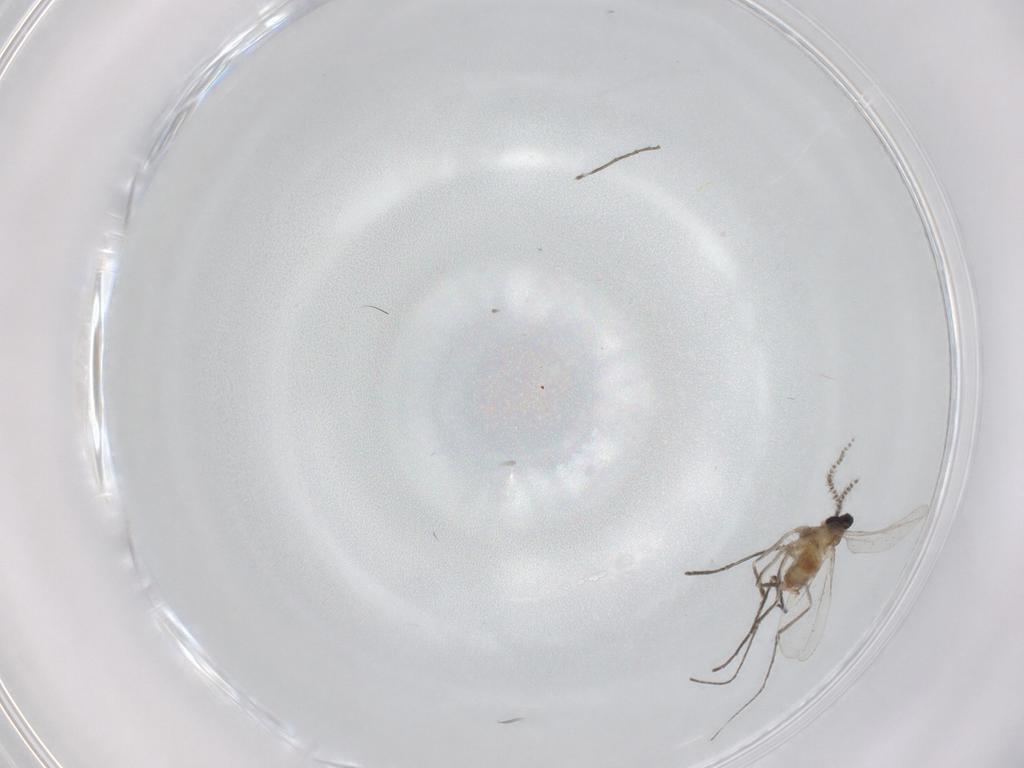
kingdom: Animalia
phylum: Arthropoda
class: Insecta
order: Diptera
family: Cecidomyiidae
